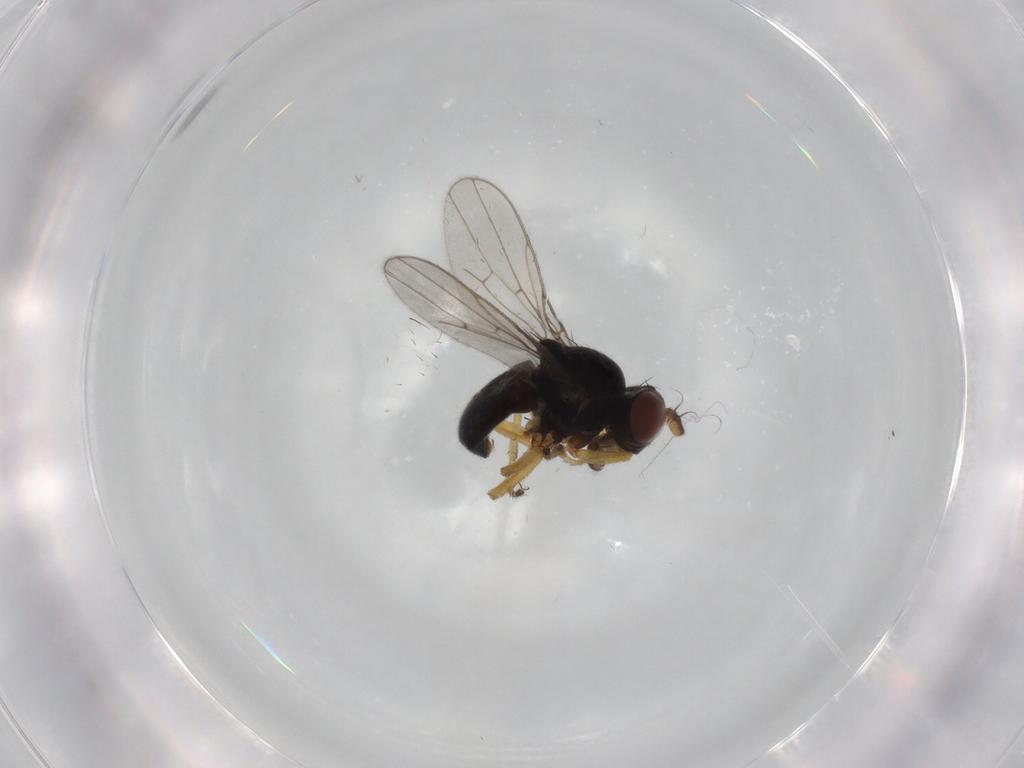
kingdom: Animalia
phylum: Arthropoda
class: Insecta
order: Diptera
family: Ephydridae
